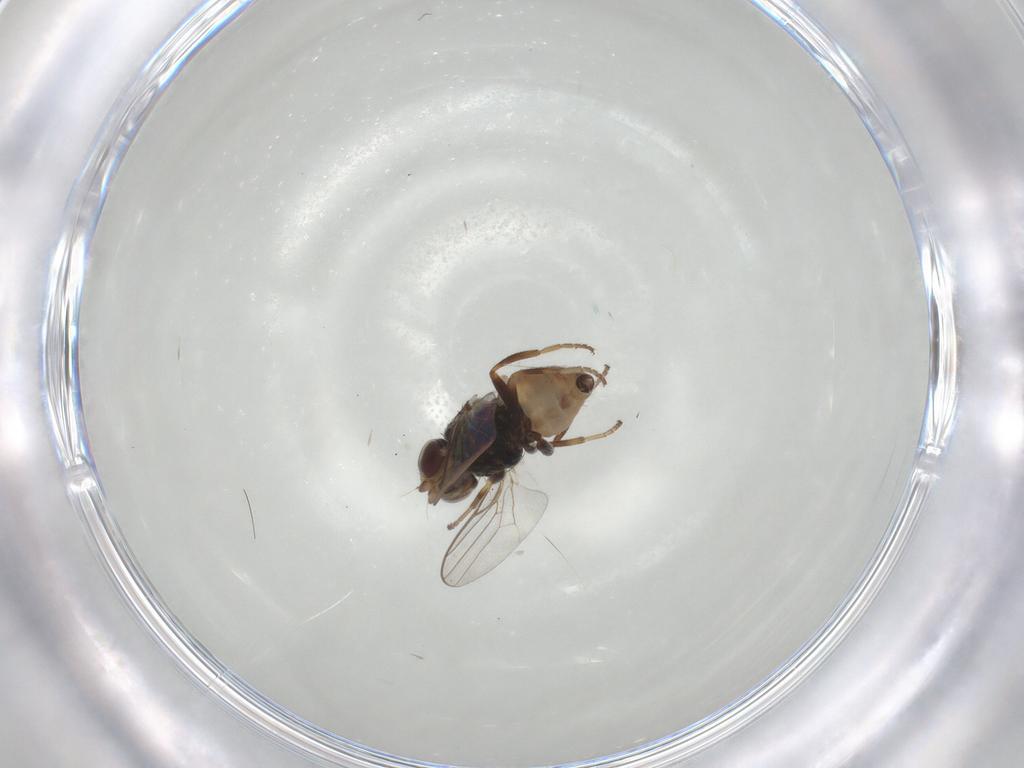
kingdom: Animalia
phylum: Arthropoda
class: Insecta
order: Diptera
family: Chloropidae
